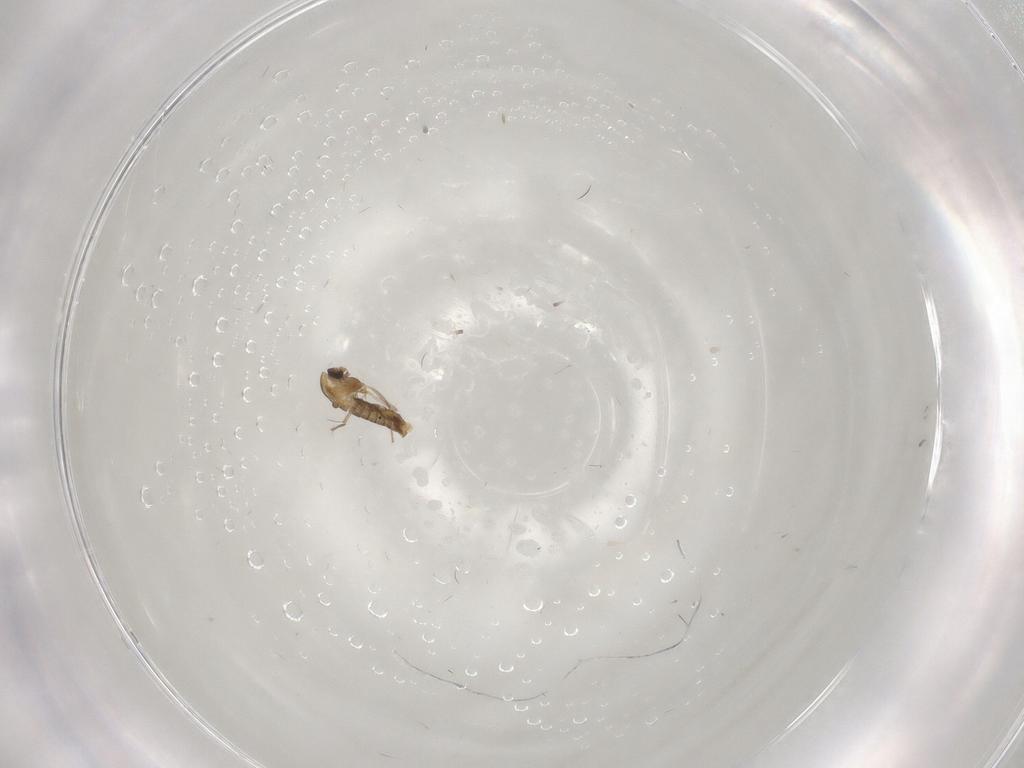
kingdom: Animalia
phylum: Arthropoda
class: Insecta
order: Diptera
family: Chironomidae
